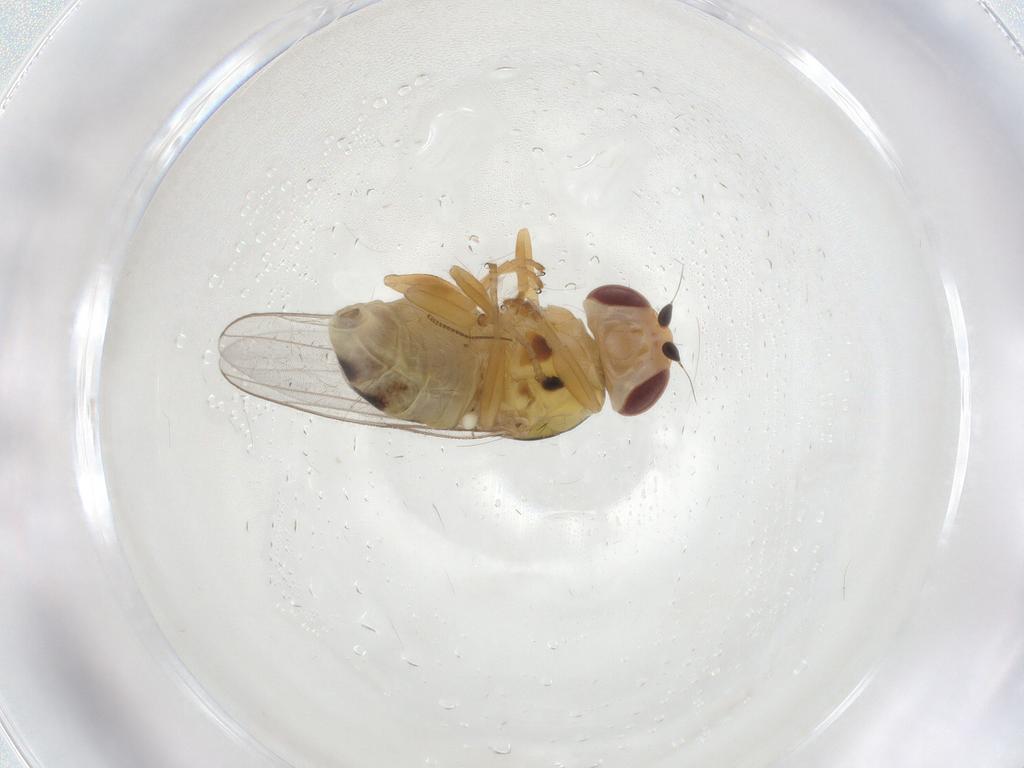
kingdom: Animalia
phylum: Arthropoda
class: Insecta
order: Diptera
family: Chloropidae
